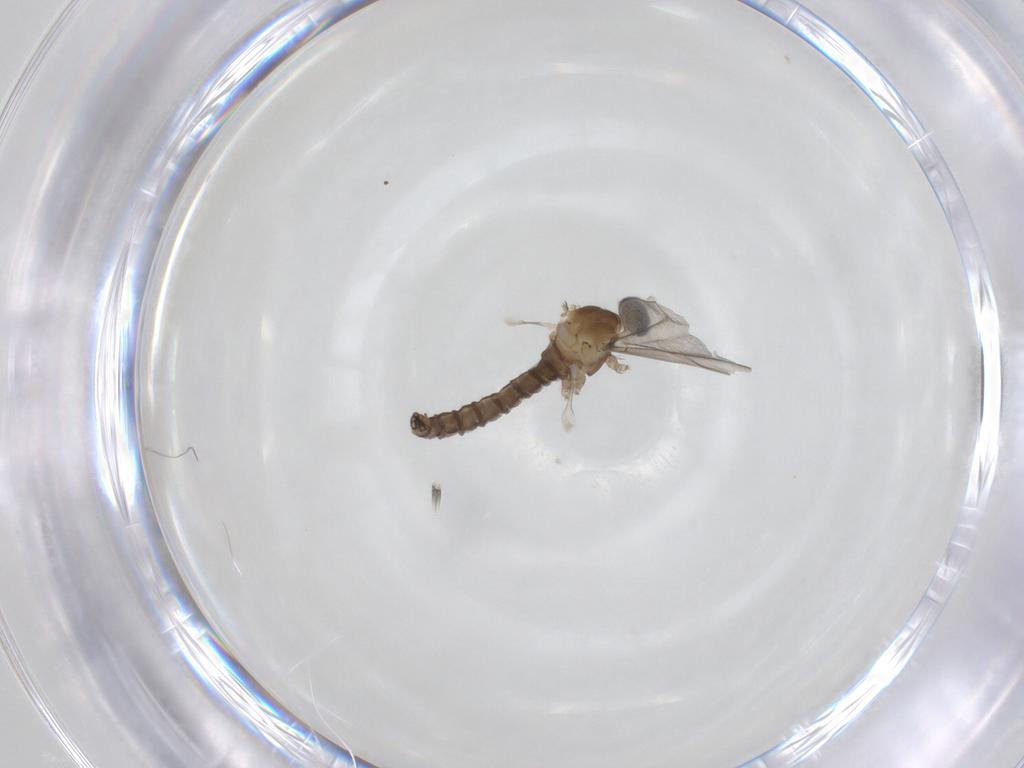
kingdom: Animalia
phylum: Arthropoda
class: Insecta
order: Diptera
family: Cecidomyiidae
